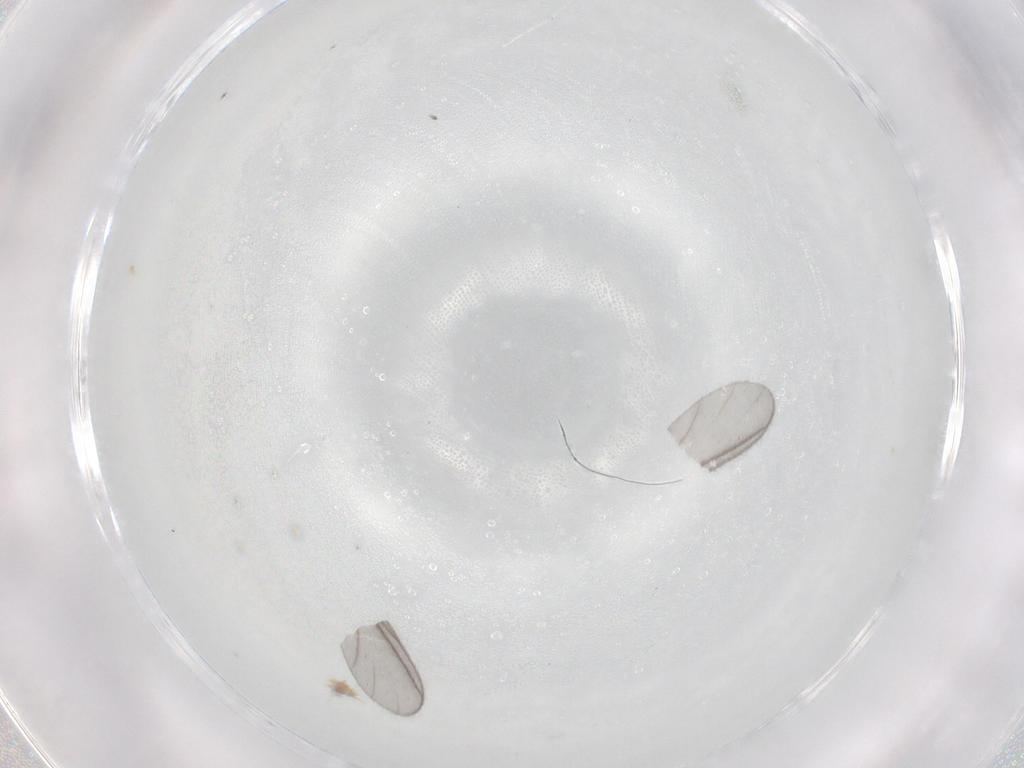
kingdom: Animalia
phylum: Arthropoda
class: Insecta
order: Diptera
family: Sciaridae
